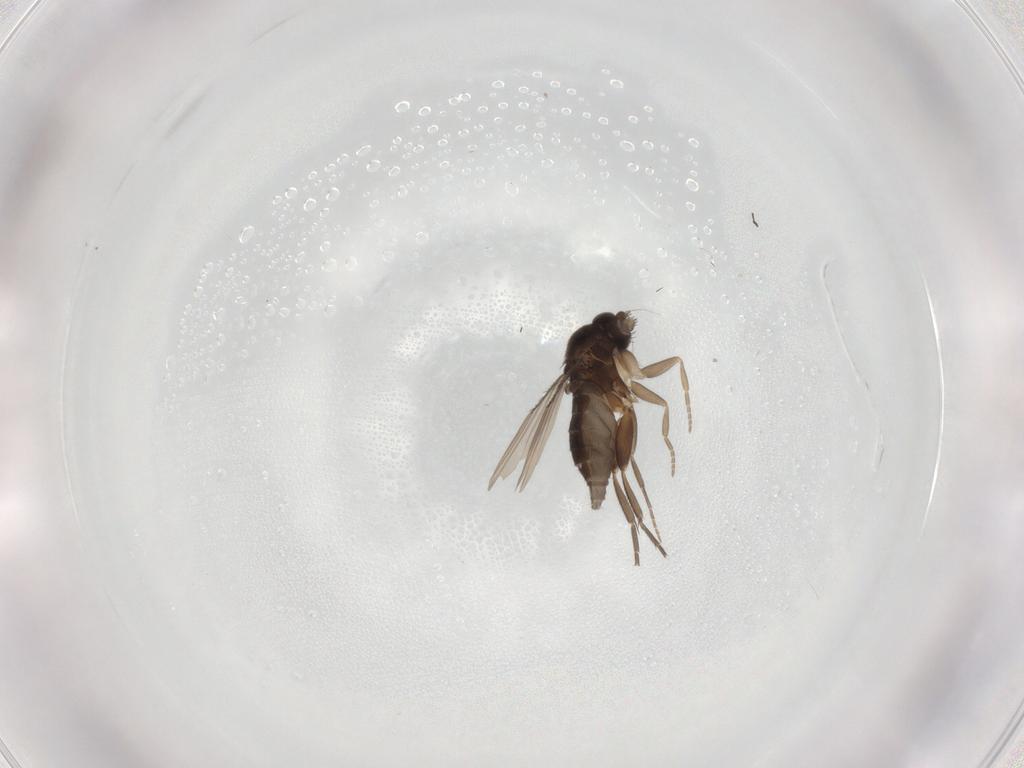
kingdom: Animalia
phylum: Arthropoda
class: Insecta
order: Diptera
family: Phoridae
